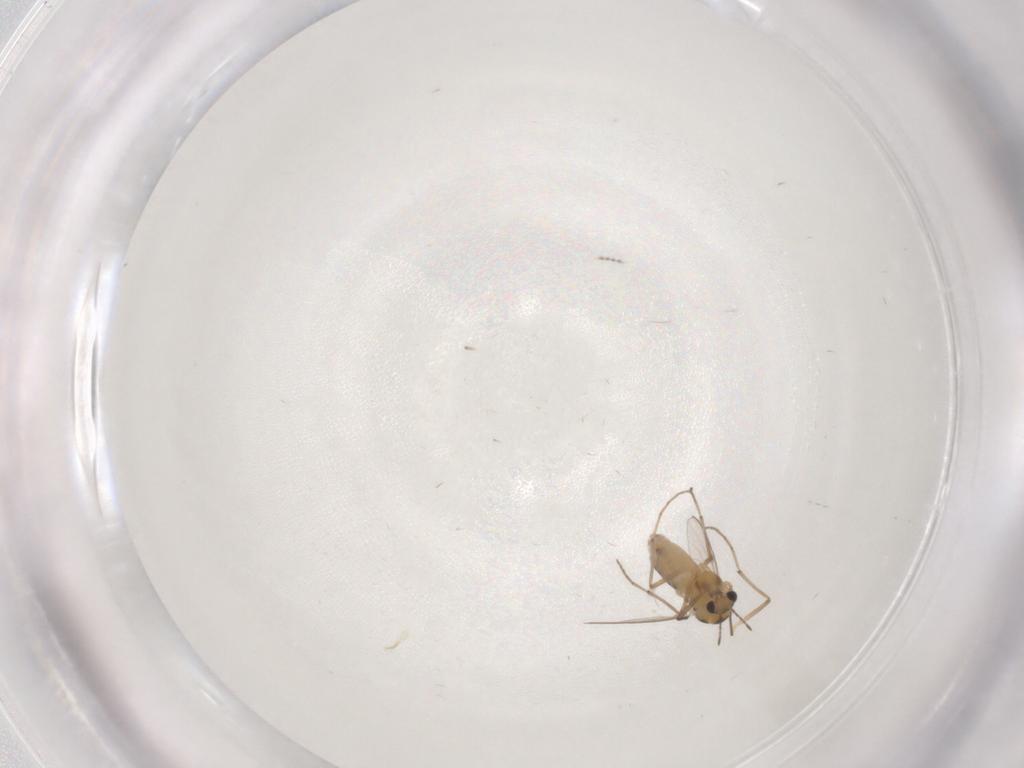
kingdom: Animalia
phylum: Arthropoda
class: Insecta
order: Diptera
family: Chironomidae
